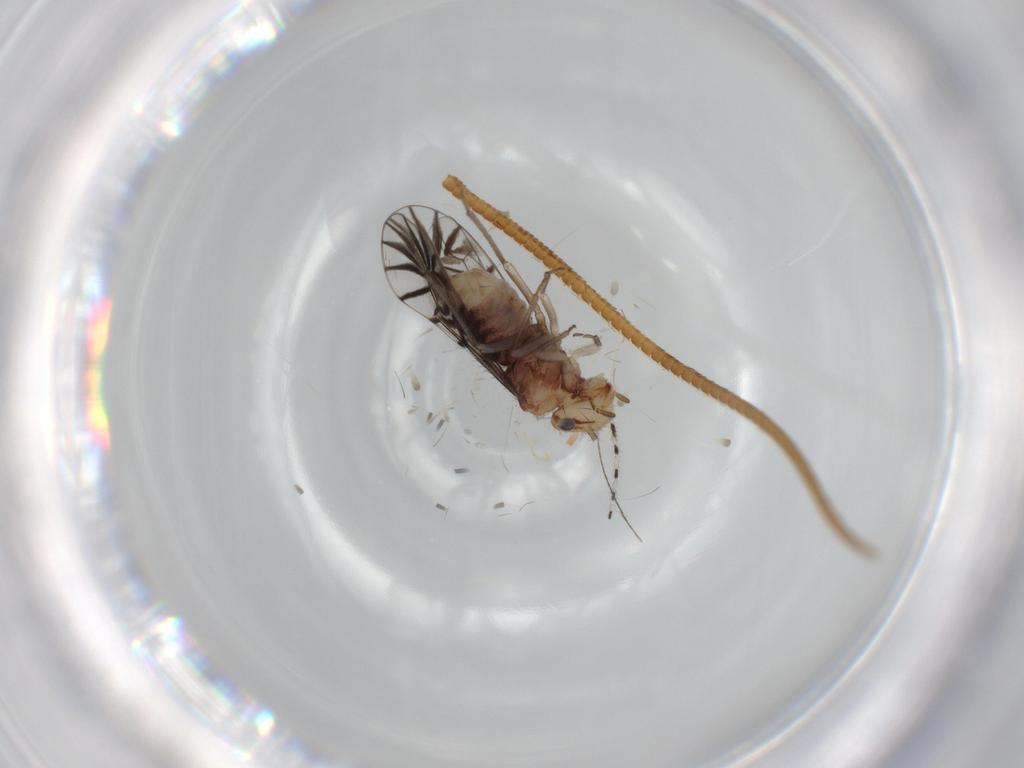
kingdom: Animalia
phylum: Arthropoda
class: Insecta
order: Psocodea
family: Amphipsocidae
